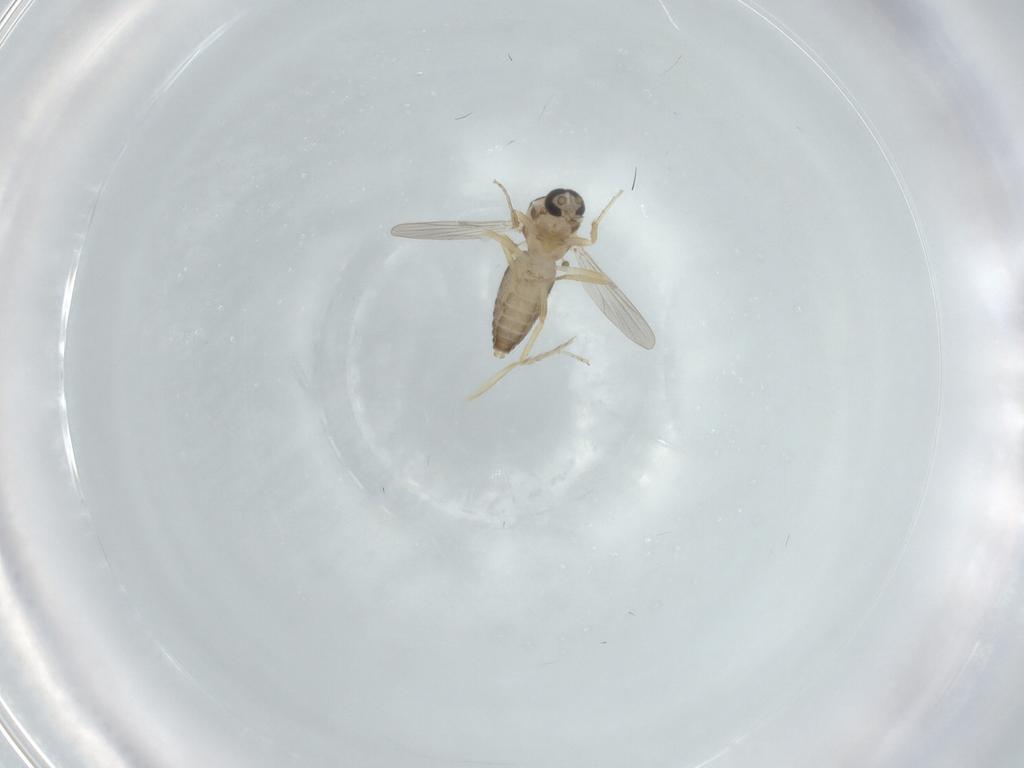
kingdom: Animalia
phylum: Arthropoda
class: Insecta
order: Diptera
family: Ceratopogonidae
